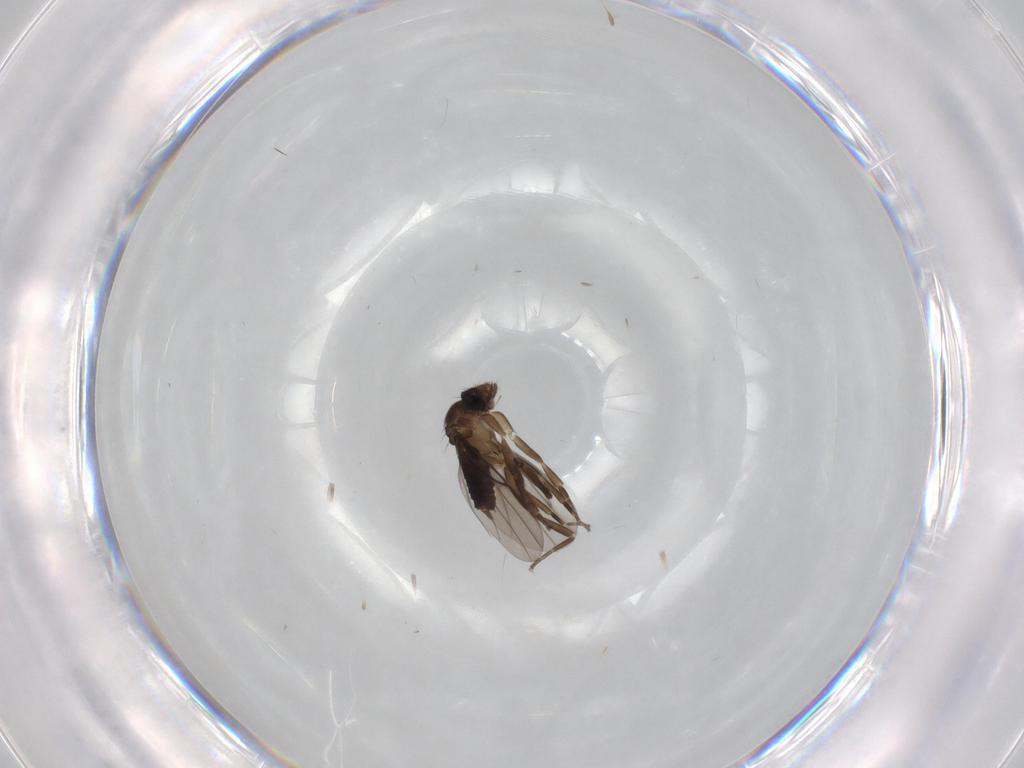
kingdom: Animalia
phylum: Arthropoda
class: Insecta
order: Diptera
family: Phoridae
